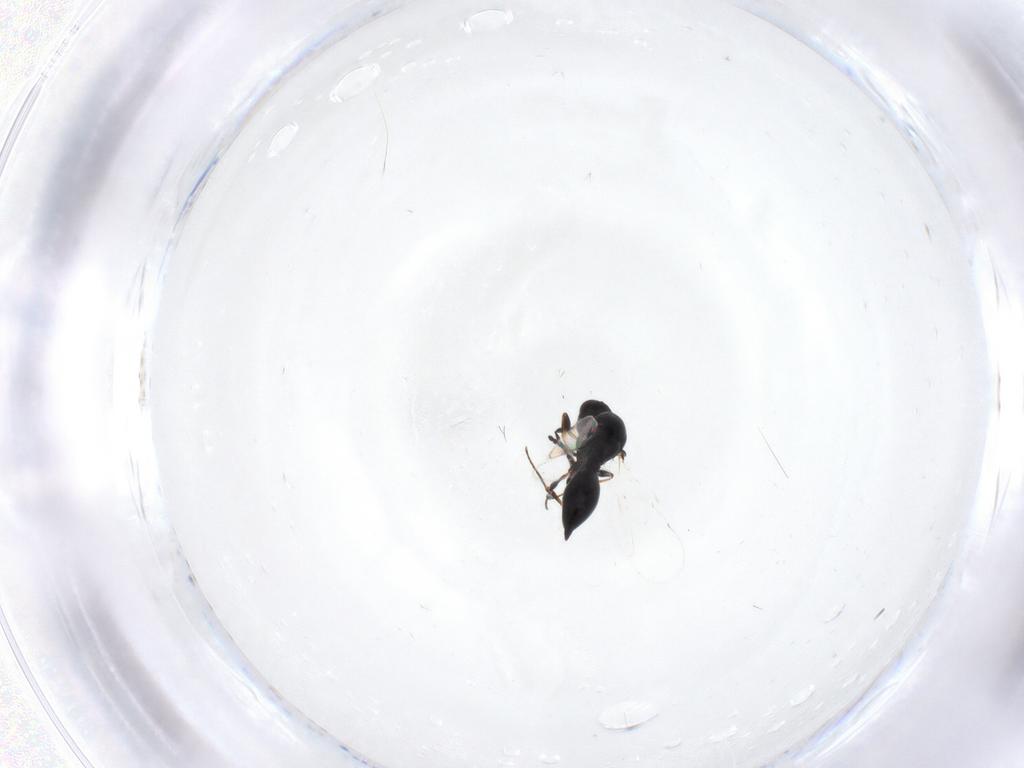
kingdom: Animalia
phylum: Arthropoda
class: Insecta
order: Hymenoptera
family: Platygastridae
